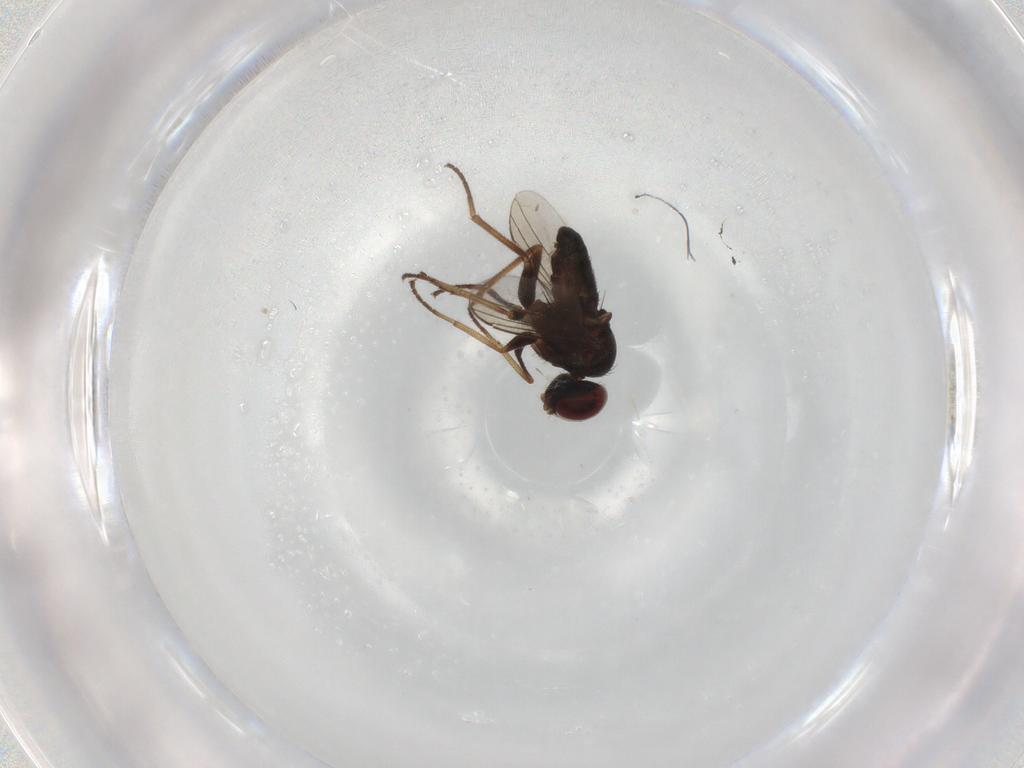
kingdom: Animalia
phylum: Arthropoda
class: Insecta
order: Diptera
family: Dolichopodidae
